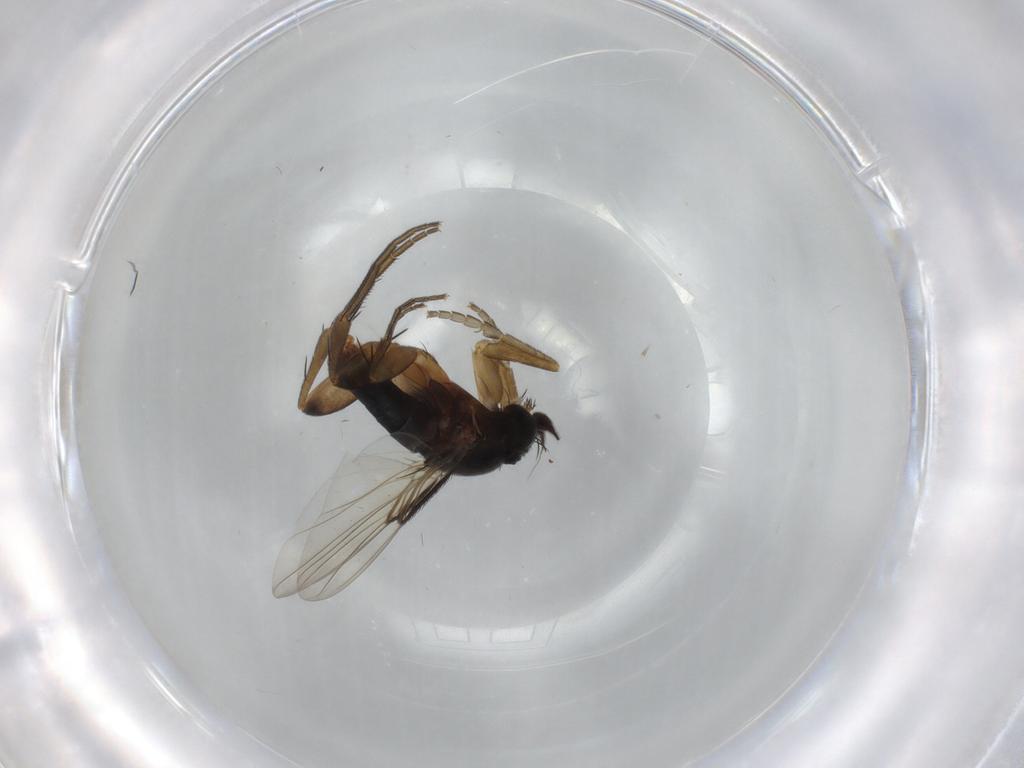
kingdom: Animalia
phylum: Arthropoda
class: Insecta
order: Diptera
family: Phoridae
